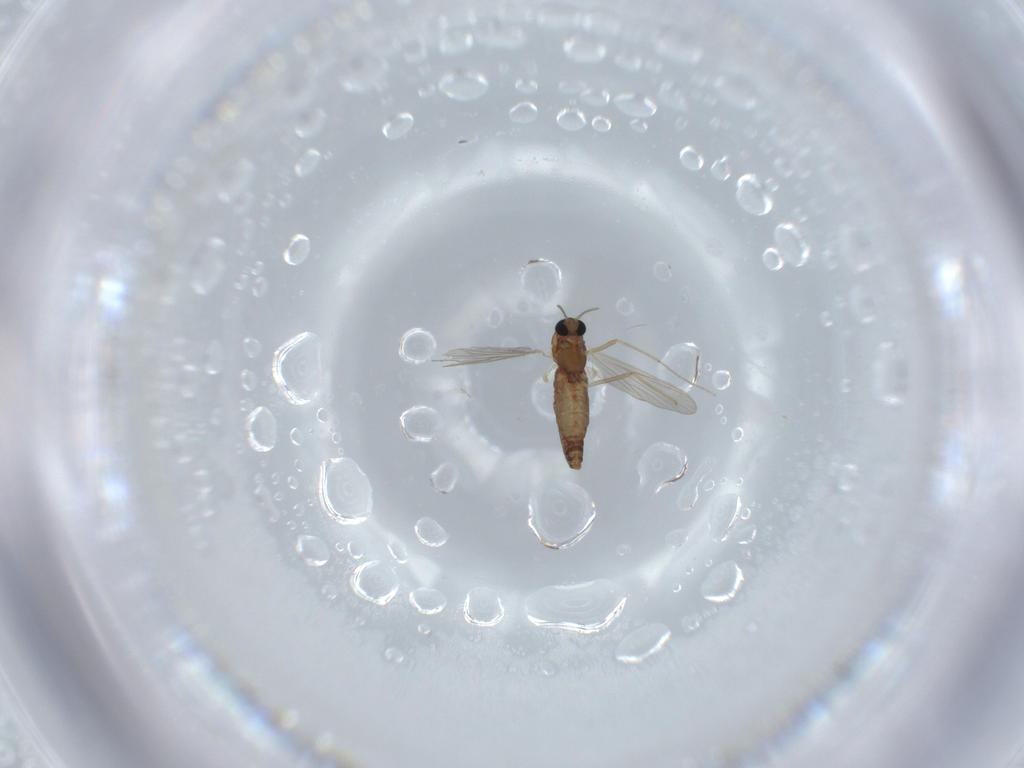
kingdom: Animalia
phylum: Arthropoda
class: Insecta
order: Diptera
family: Chironomidae
